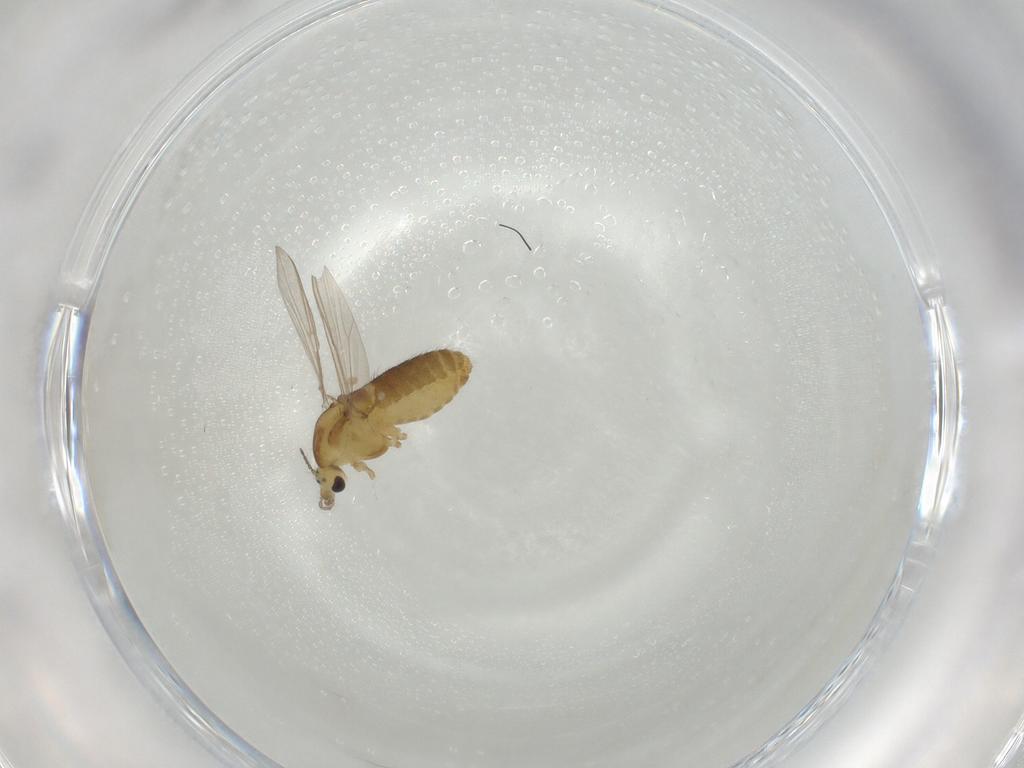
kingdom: Animalia
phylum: Arthropoda
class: Insecta
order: Diptera
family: Chironomidae
